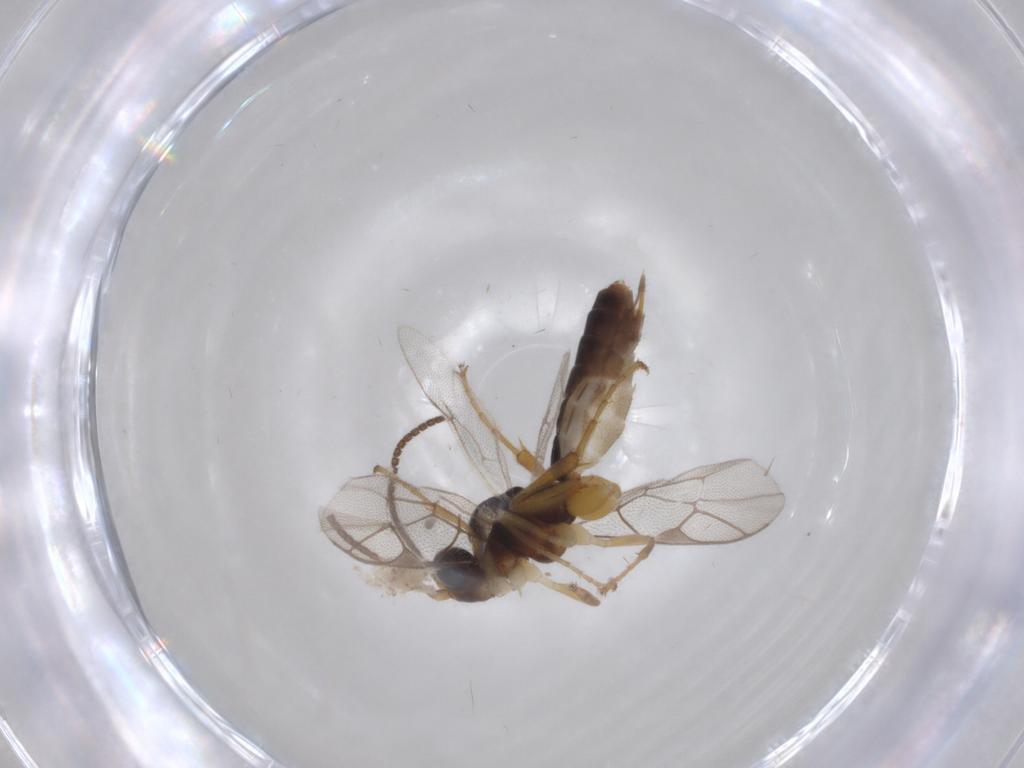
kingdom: Animalia
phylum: Arthropoda
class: Insecta
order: Hymenoptera
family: Ichneumonidae
